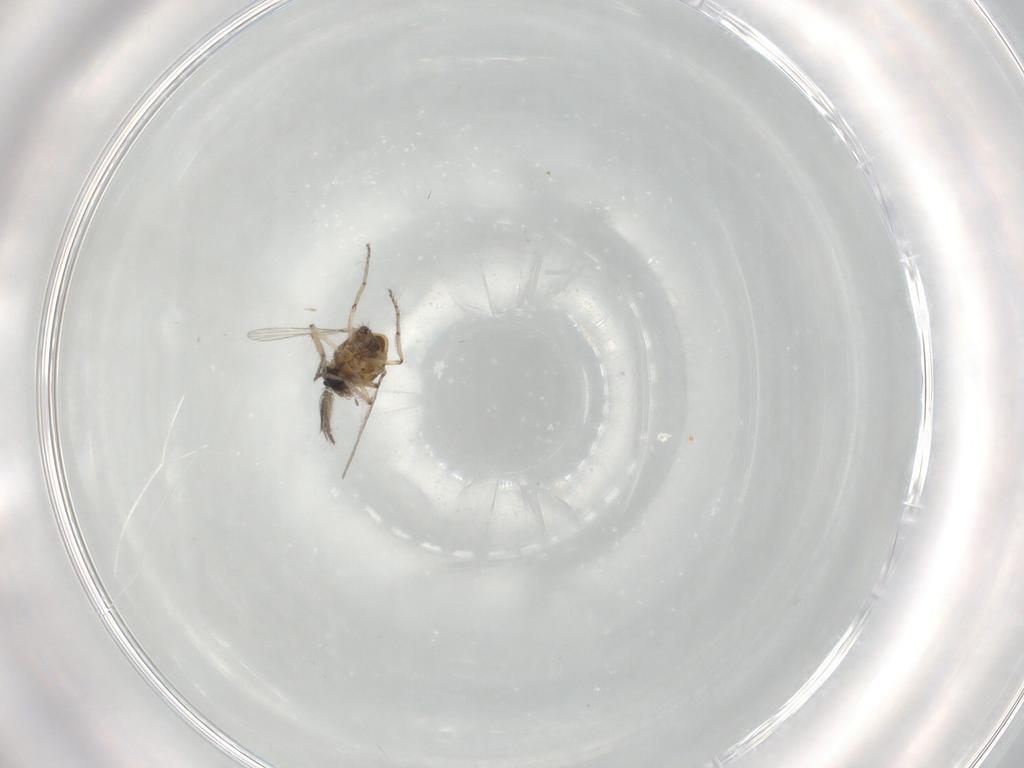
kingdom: Animalia
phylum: Arthropoda
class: Insecta
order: Diptera
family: Ceratopogonidae
